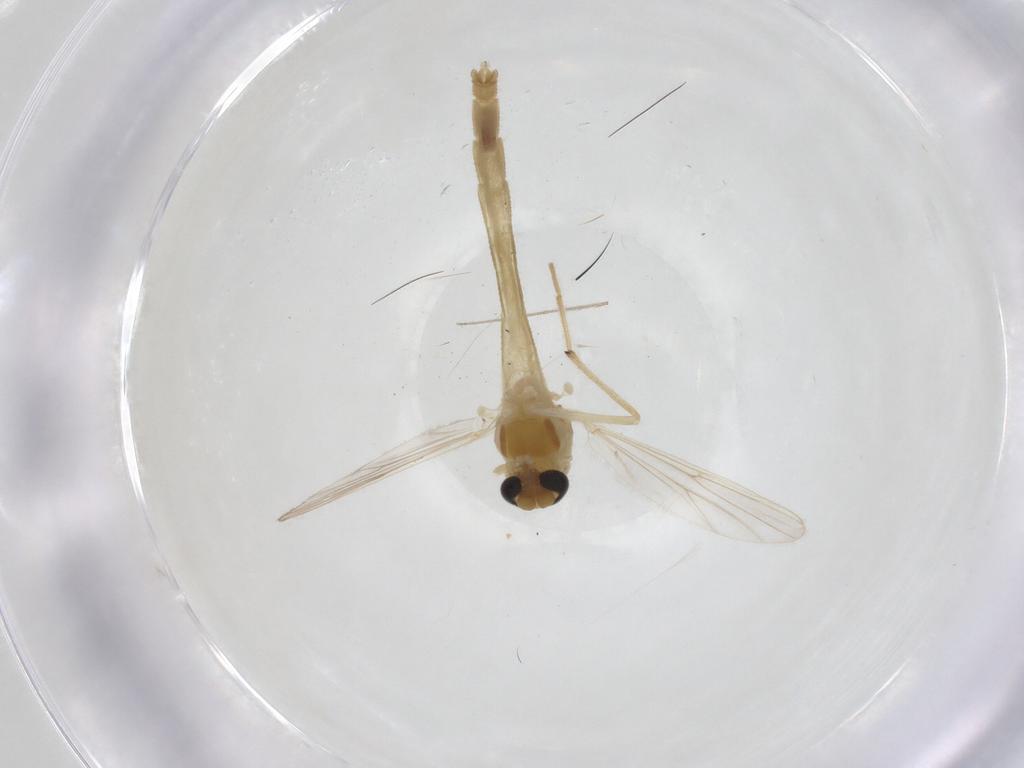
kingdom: Animalia
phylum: Arthropoda
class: Insecta
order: Diptera
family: Chironomidae
